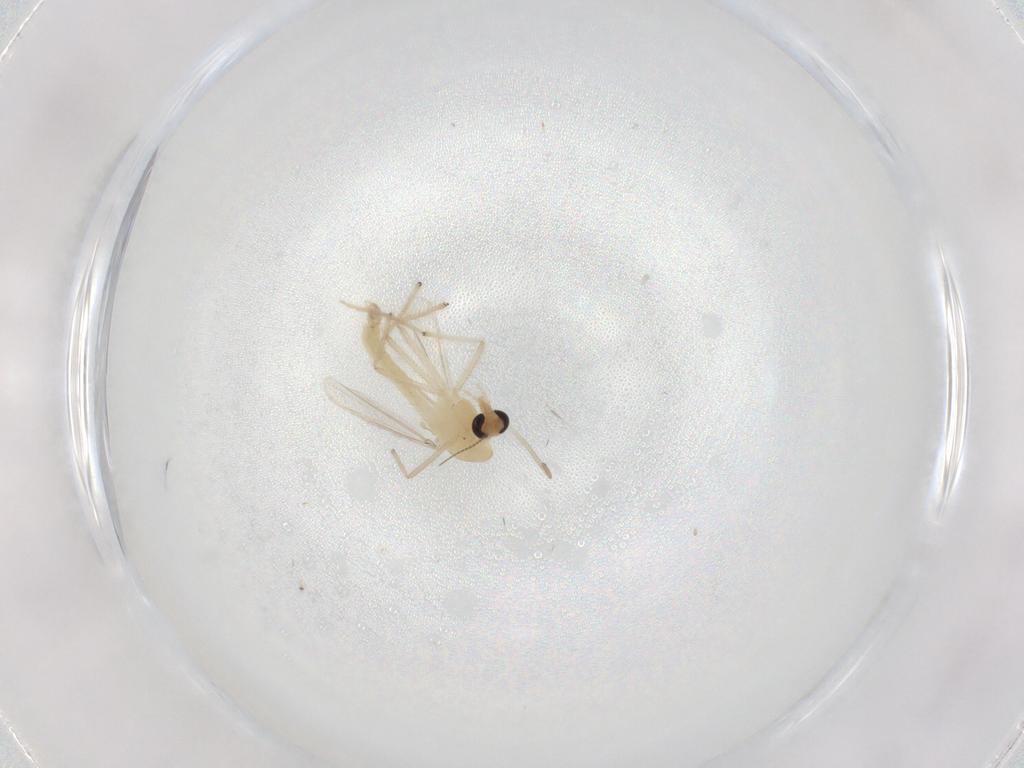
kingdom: Animalia
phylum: Arthropoda
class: Insecta
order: Diptera
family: Chironomidae
